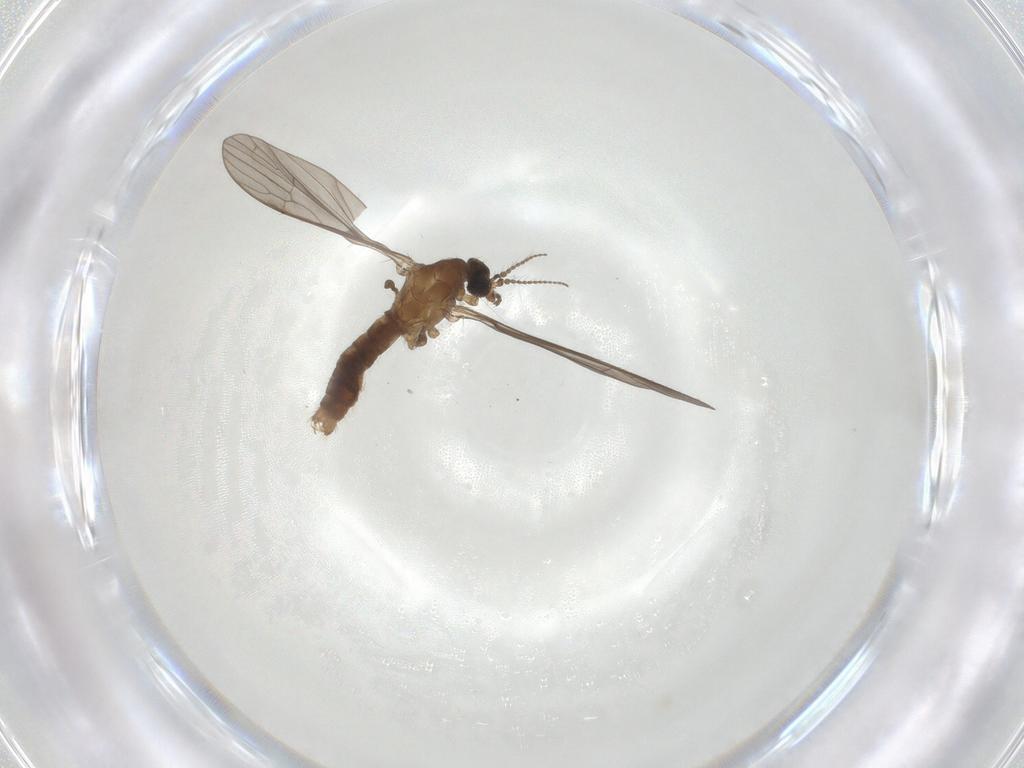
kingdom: Animalia
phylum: Arthropoda
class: Insecta
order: Diptera
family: Limoniidae
